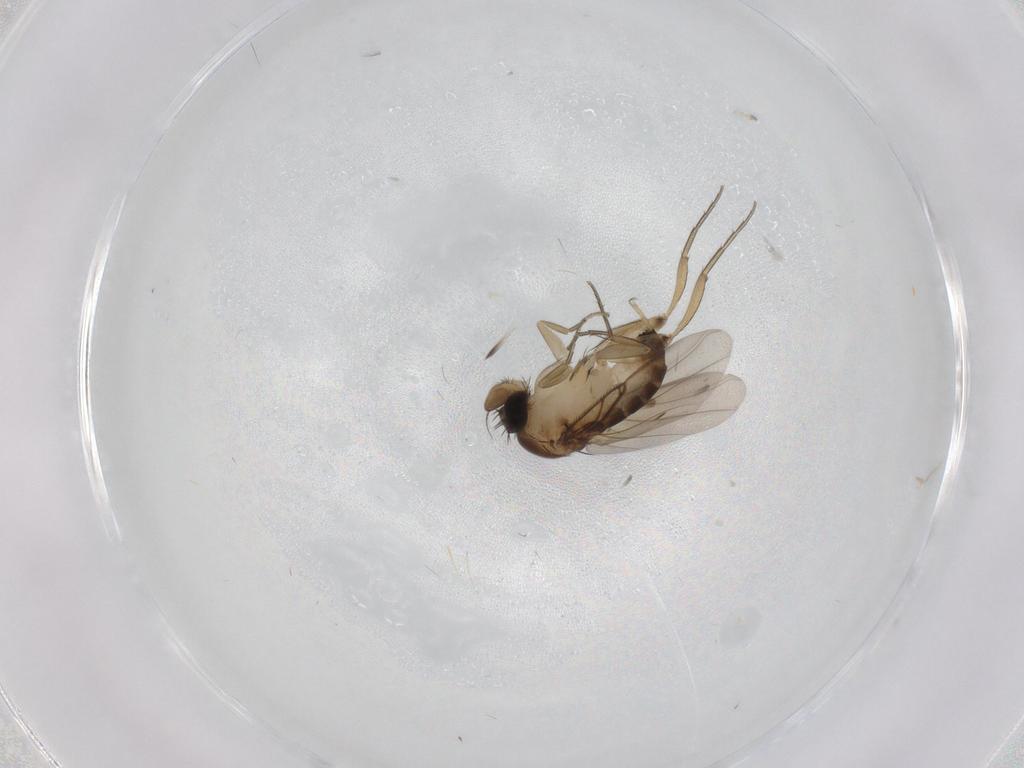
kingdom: Animalia
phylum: Arthropoda
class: Insecta
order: Diptera
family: Phoridae
